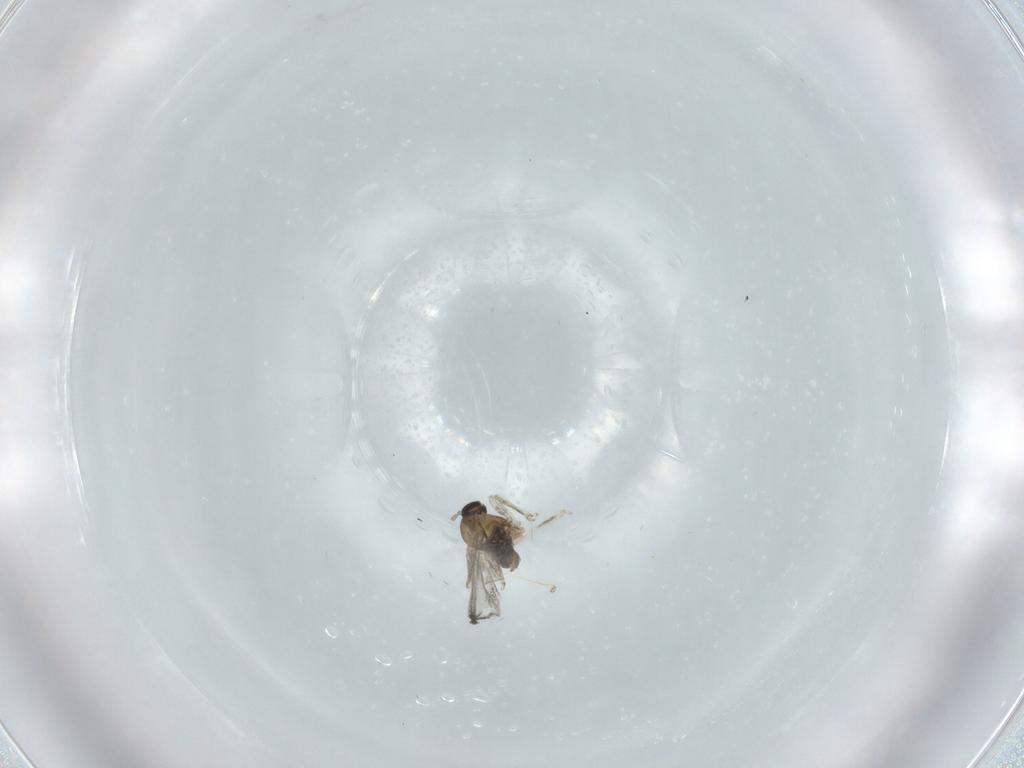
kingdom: Animalia
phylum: Arthropoda
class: Insecta
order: Diptera
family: Cecidomyiidae
